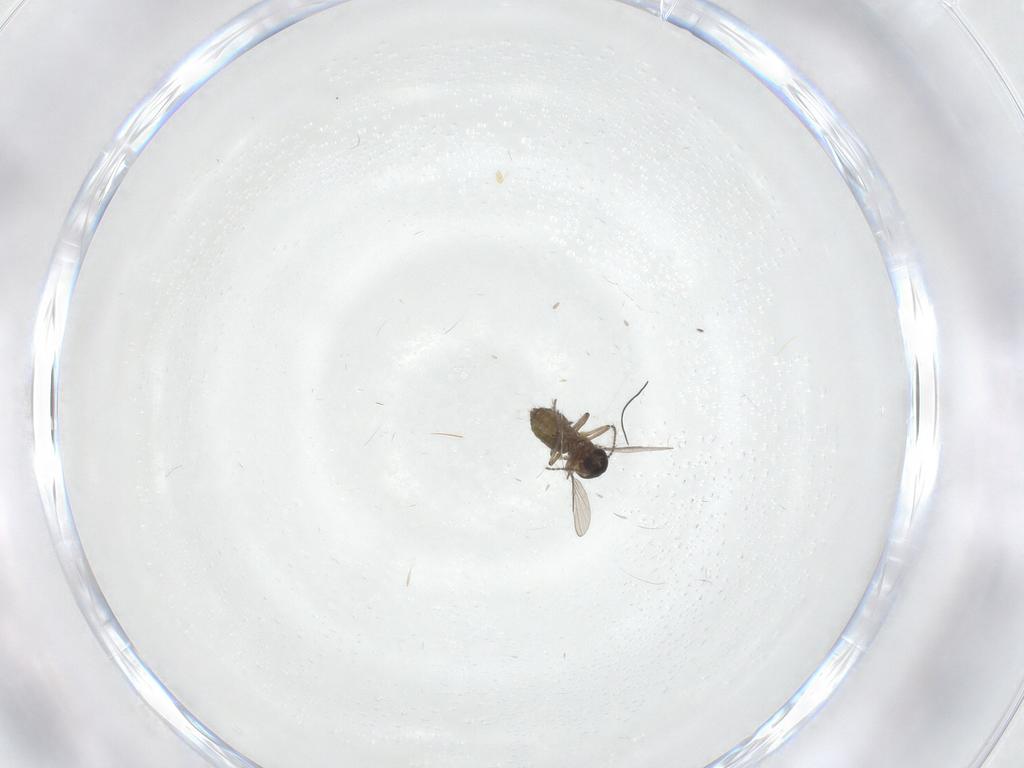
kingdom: Animalia
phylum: Arthropoda
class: Insecta
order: Diptera
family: Ceratopogonidae
